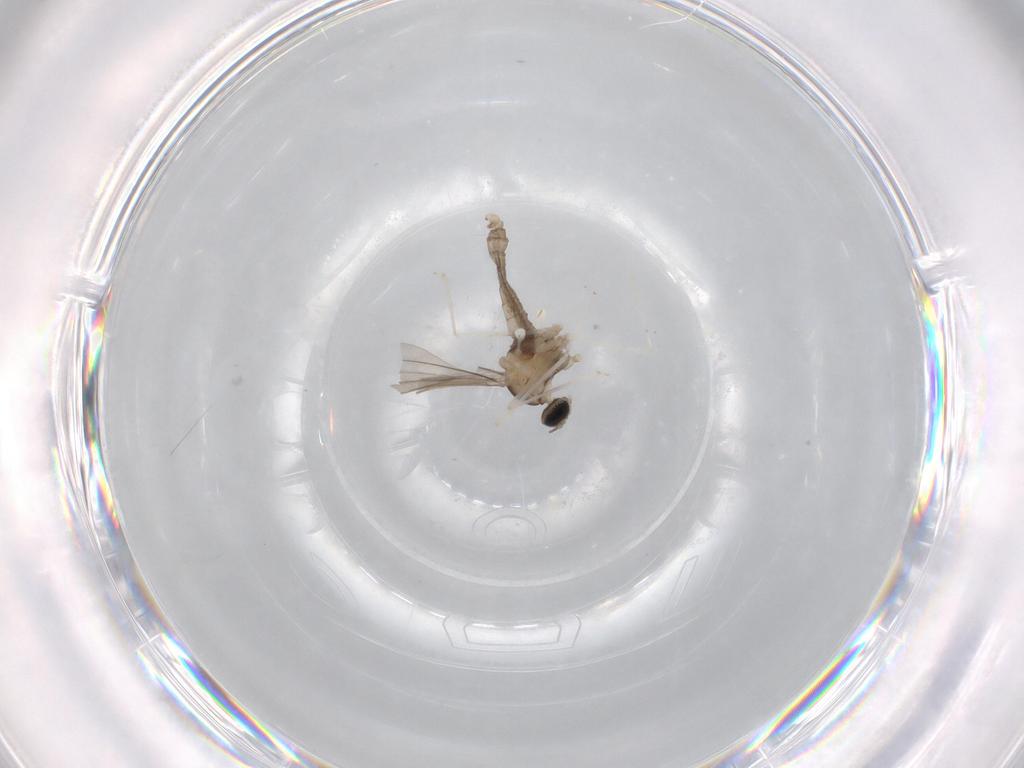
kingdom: Animalia
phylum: Arthropoda
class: Insecta
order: Diptera
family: Cecidomyiidae
